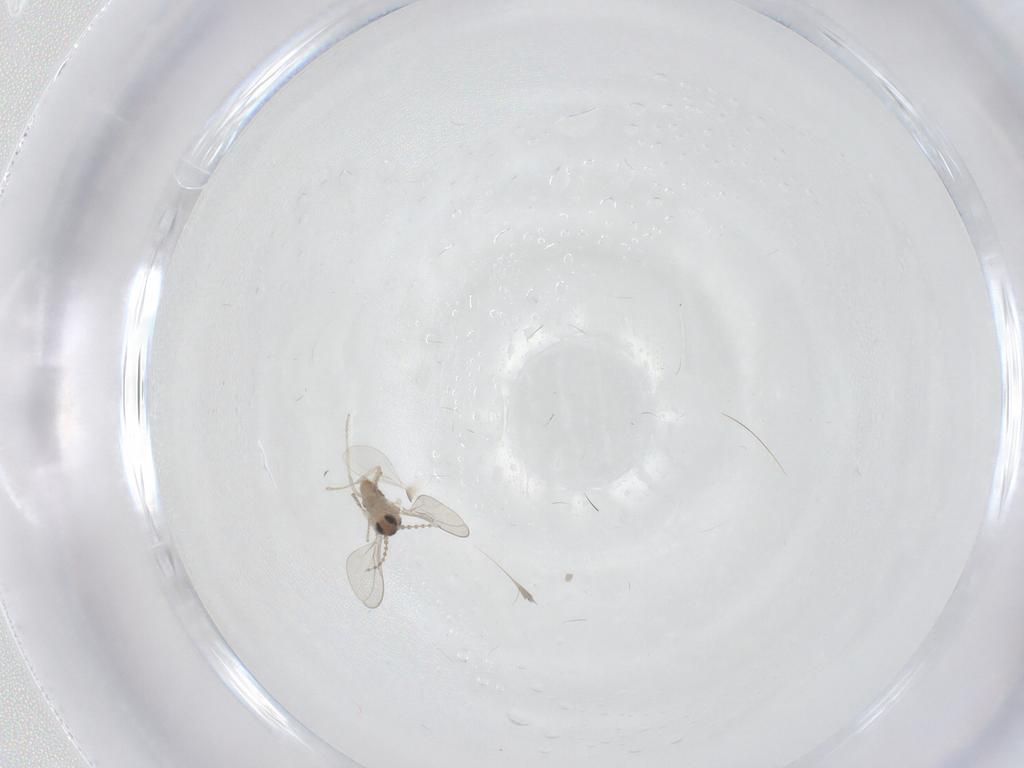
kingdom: Animalia
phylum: Arthropoda
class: Insecta
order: Diptera
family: Cecidomyiidae
